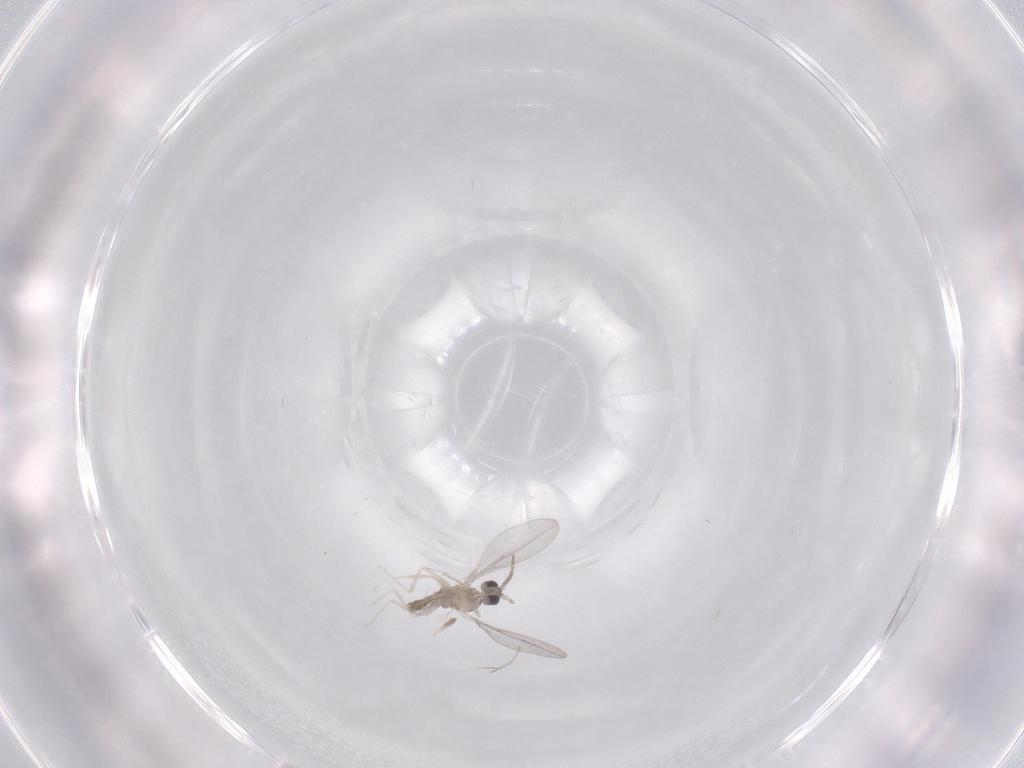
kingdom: Animalia
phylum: Arthropoda
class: Insecta
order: Diptera
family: Cecidomyiidae
